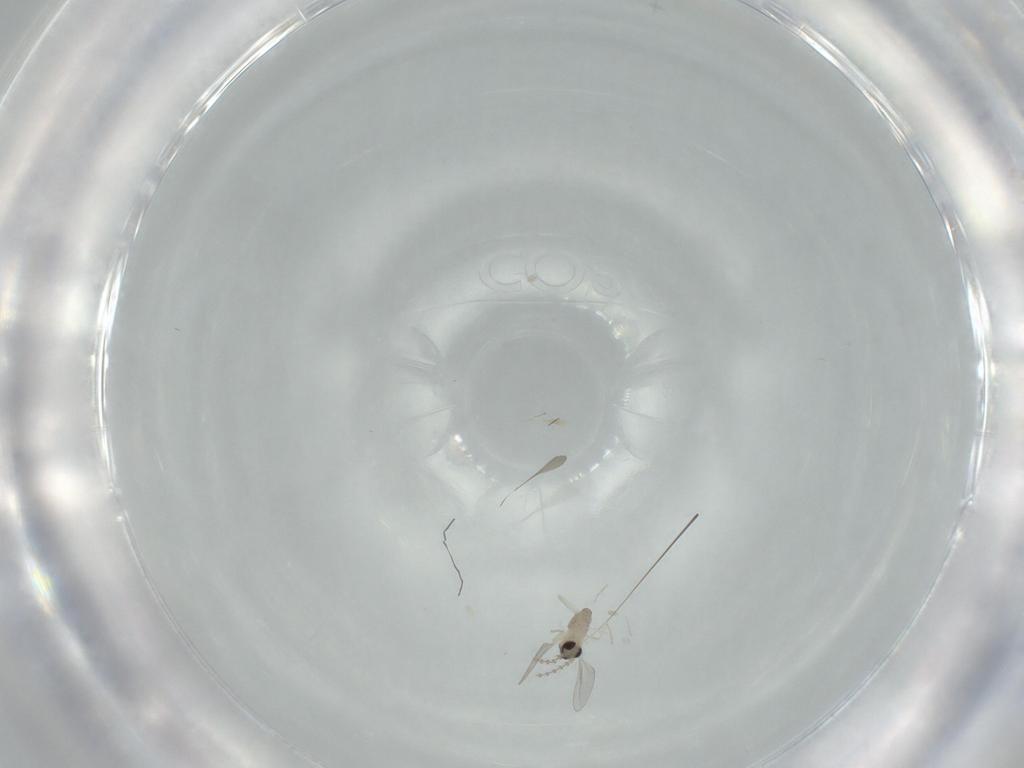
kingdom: Animalia
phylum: Arthropoda
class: Insecta
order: Diptera
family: Cecidomyiidae
